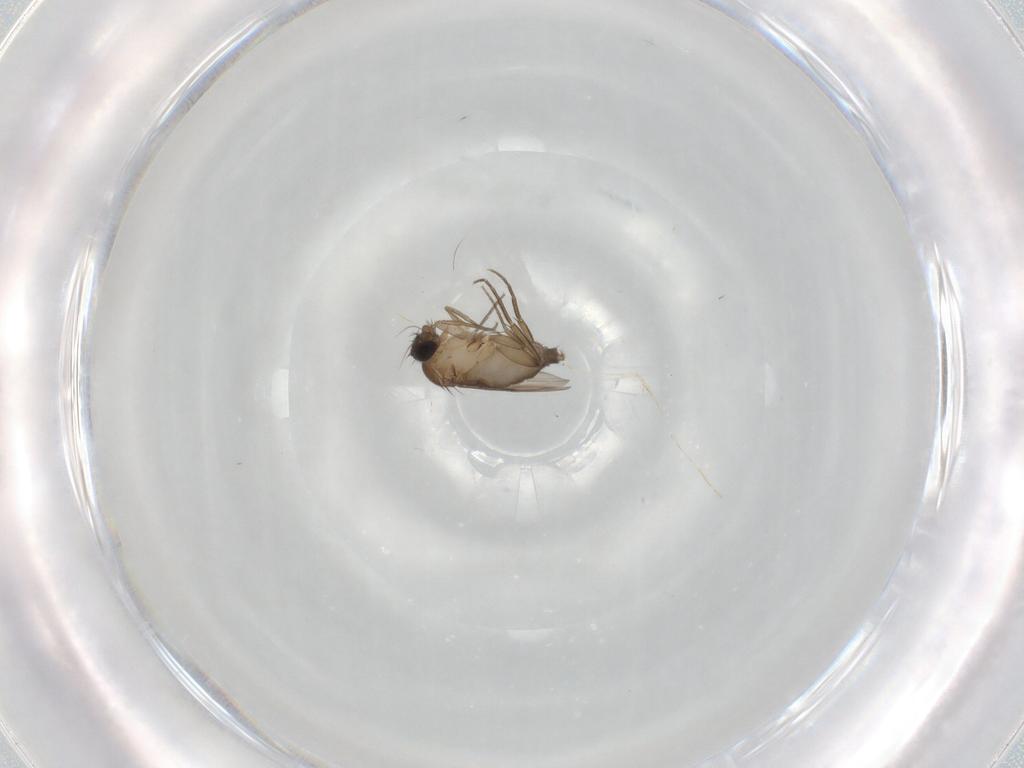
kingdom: Animalia
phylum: Arthropoda
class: Insecta
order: Diptera
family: Phoridae
